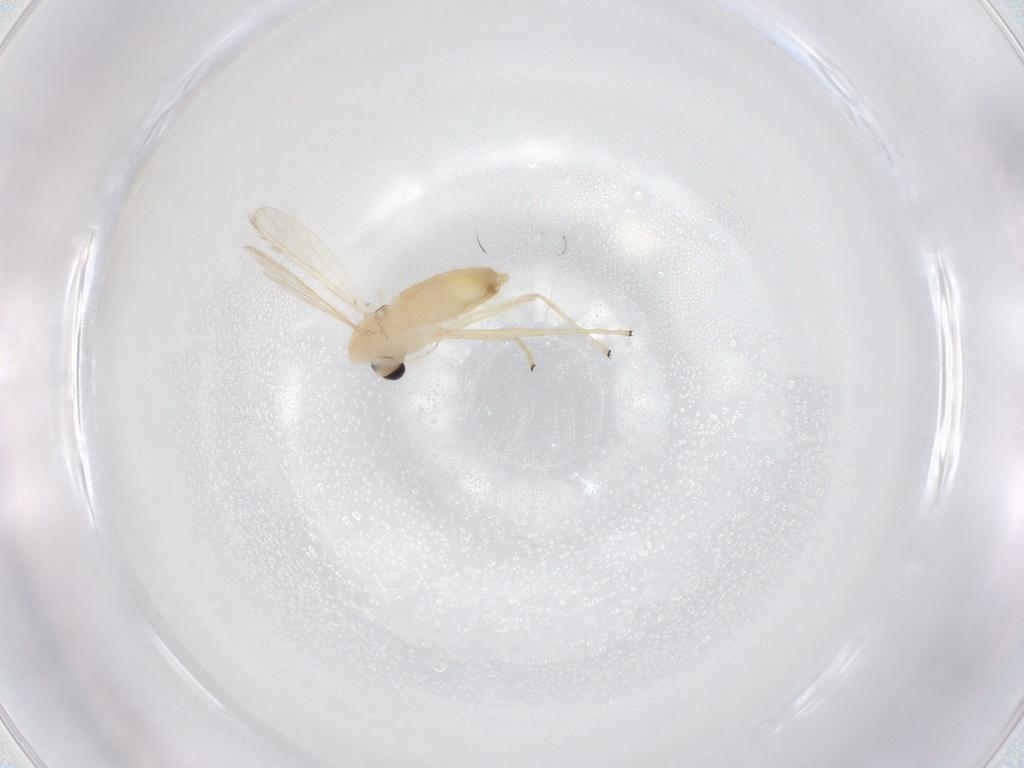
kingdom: Animalia
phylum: Arthropoda
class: Insecta
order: Diptera
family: Chironomidae
